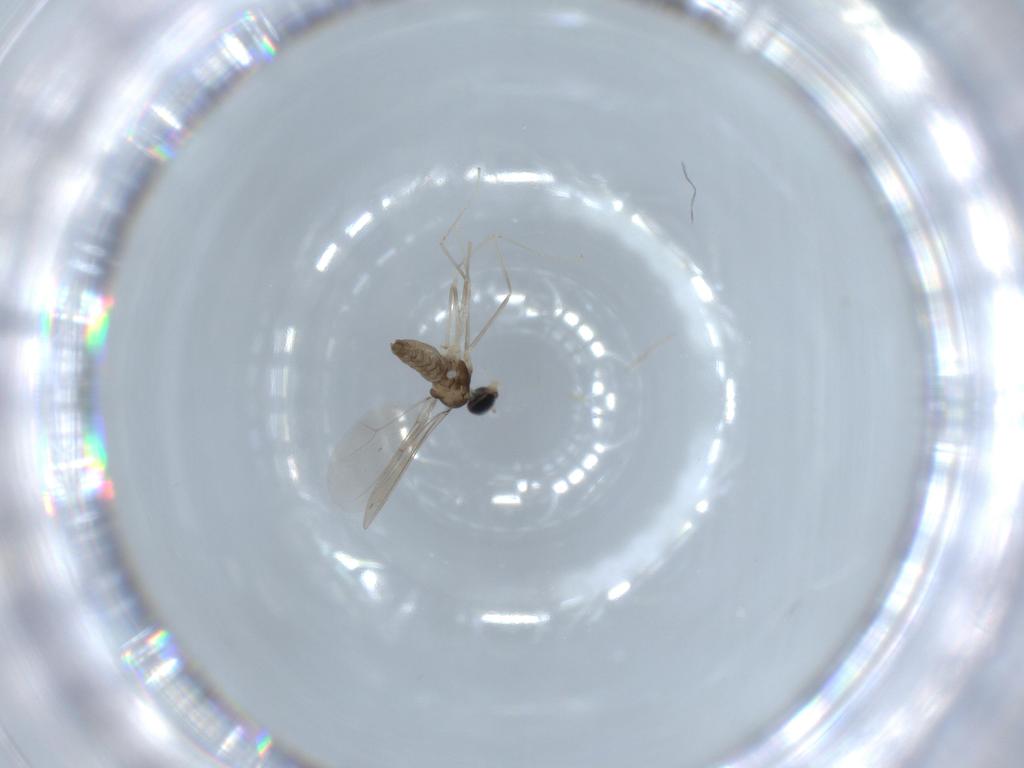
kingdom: Animalia
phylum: Arthropoda
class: Insecta
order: Diptera
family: Cecidomyiidae
